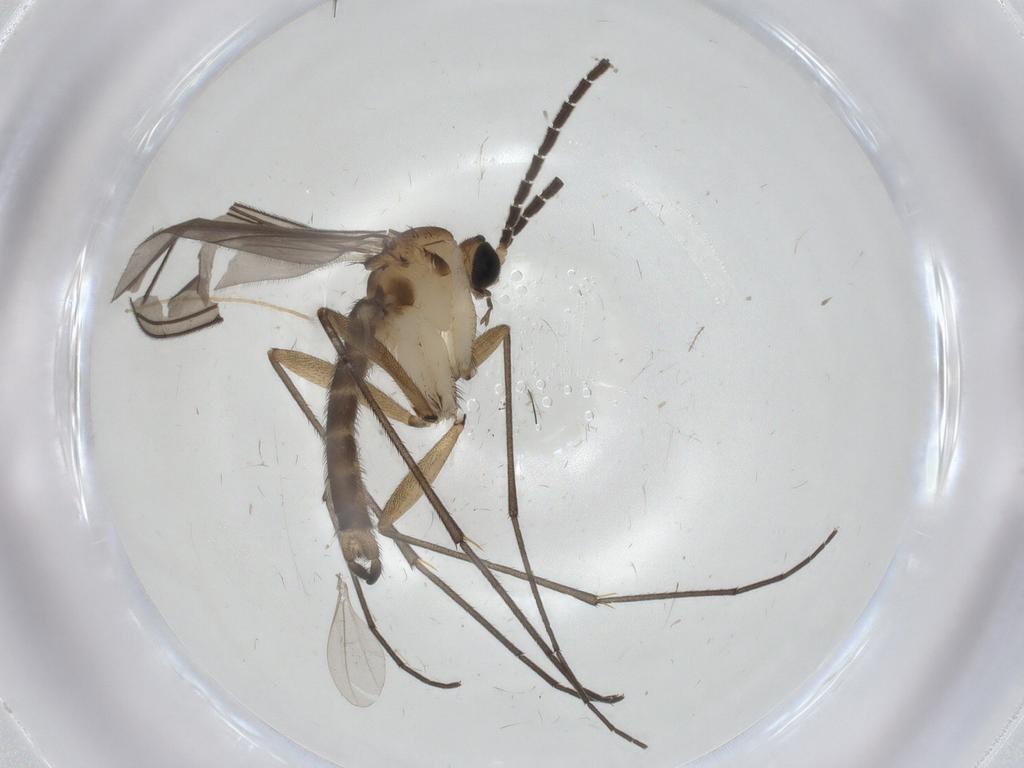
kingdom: Animalia
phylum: Arthropoda
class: Insecta
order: Diptera
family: Sciaridae
